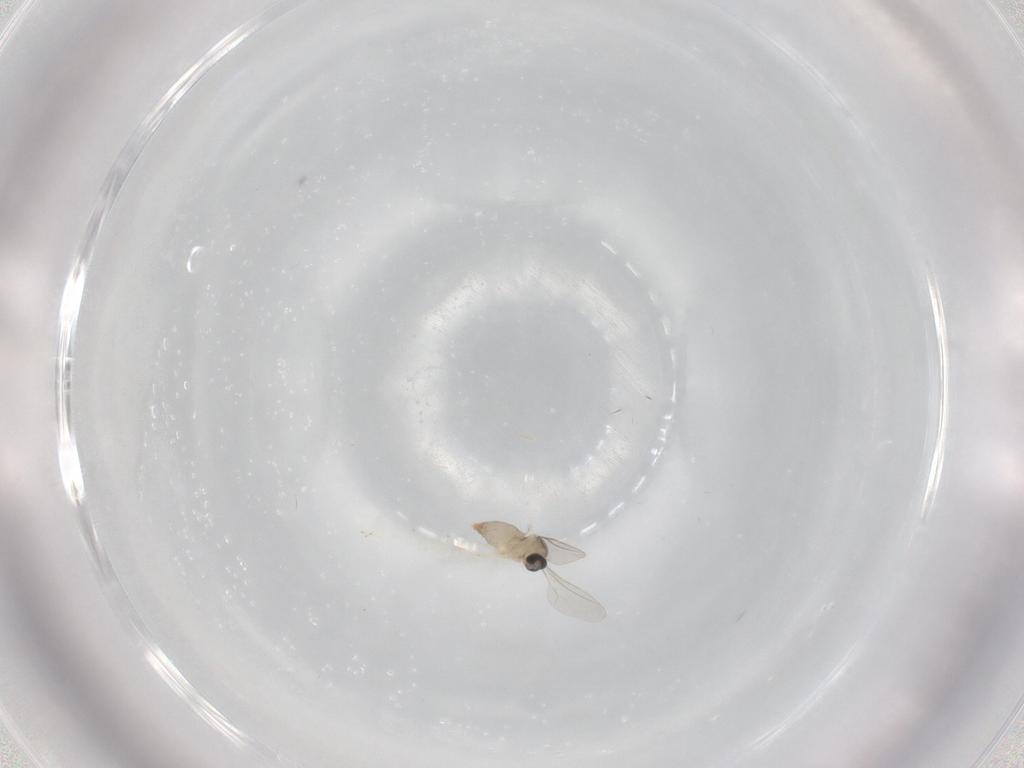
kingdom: Animalia
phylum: Arthropoda
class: Insecta
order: Diptera
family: Cecidomyiidae
